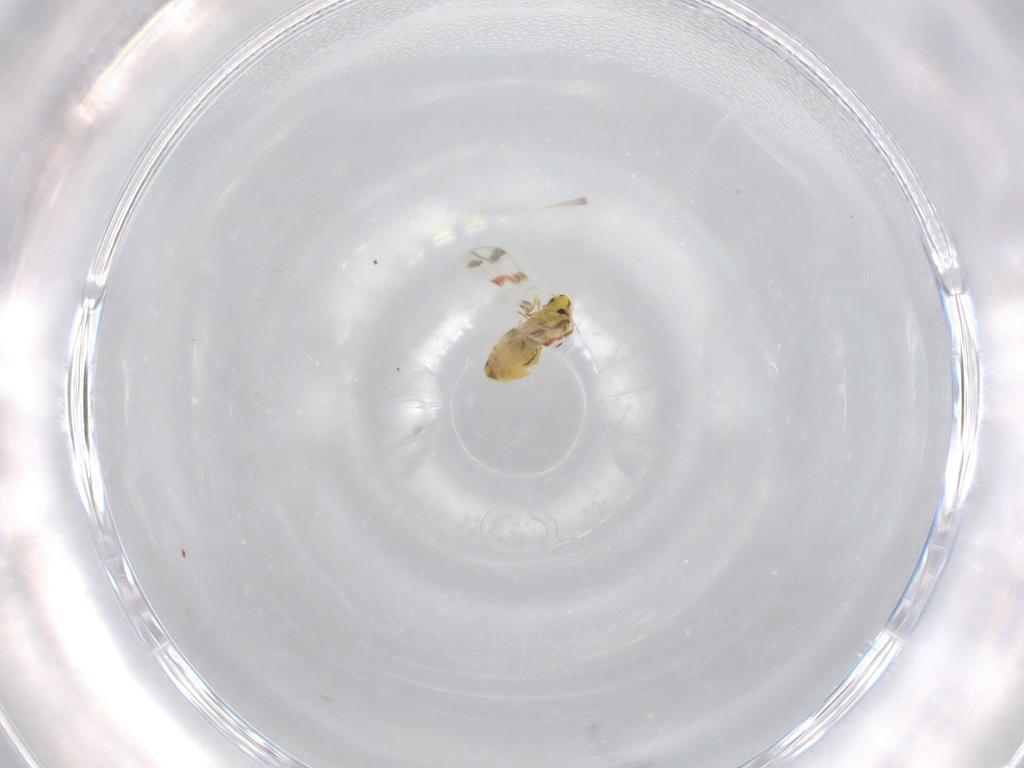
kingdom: Animalia
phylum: Arthropoda
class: Insecta
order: Hemiptera
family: Aleyrodidae
